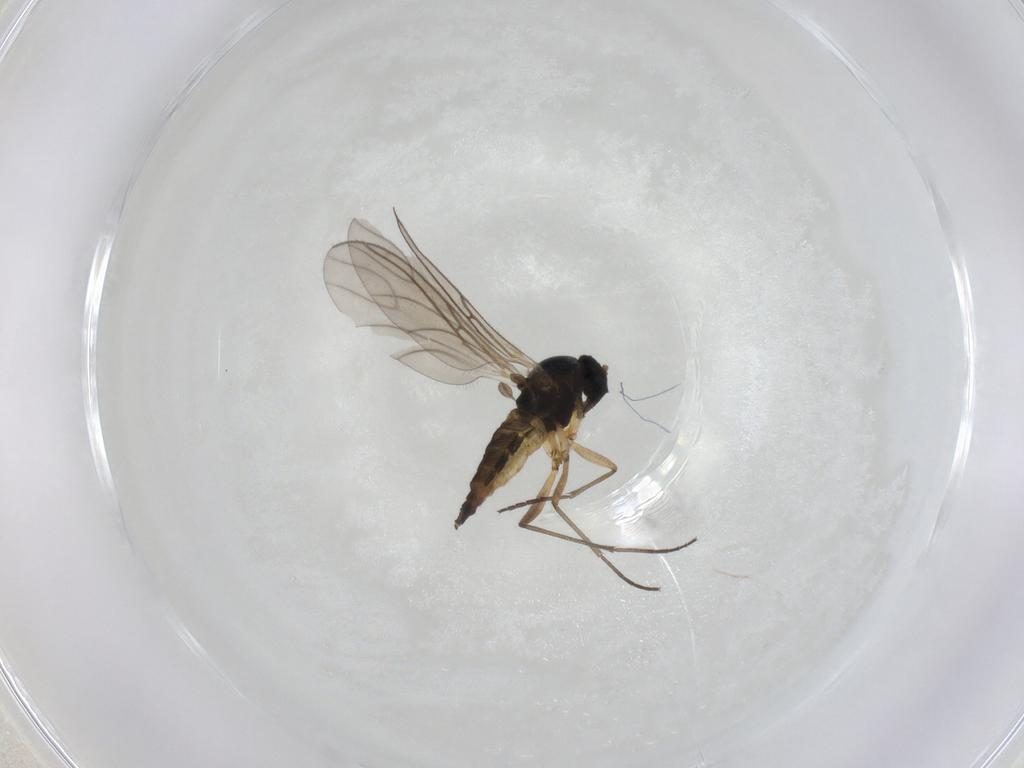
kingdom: Animalia
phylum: Arthropoda
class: Insecta
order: Diptera
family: Sciaridae
